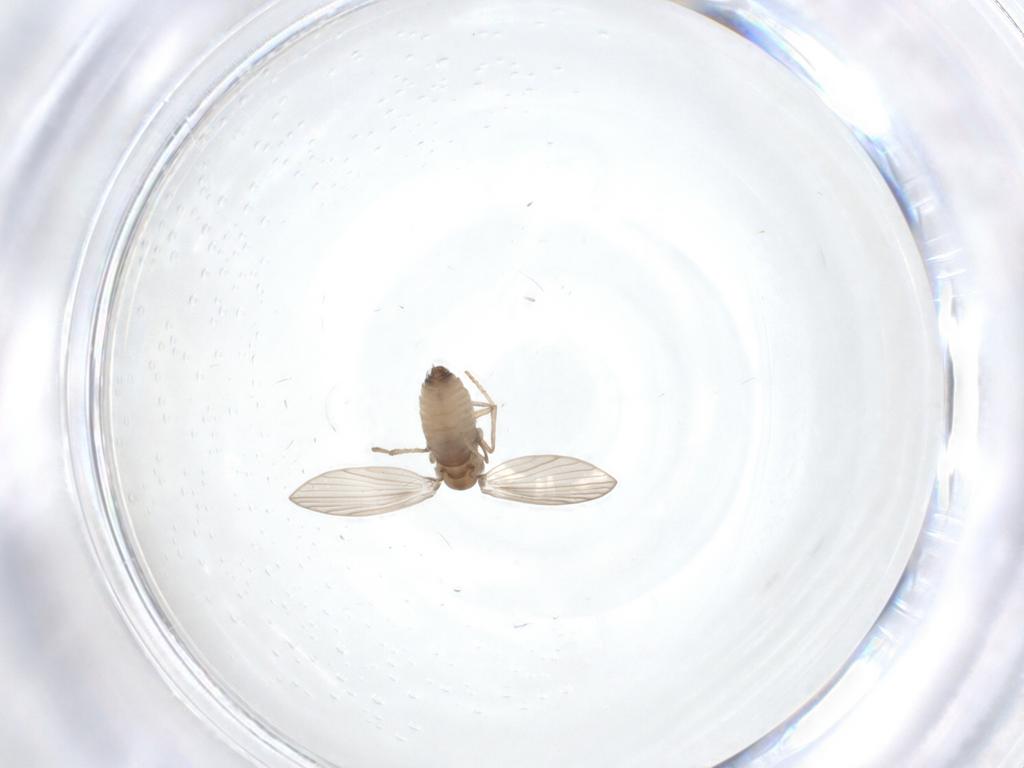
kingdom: Animalia
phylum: Arthropoda
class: Insecta
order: Diptera
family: Psychodidae
